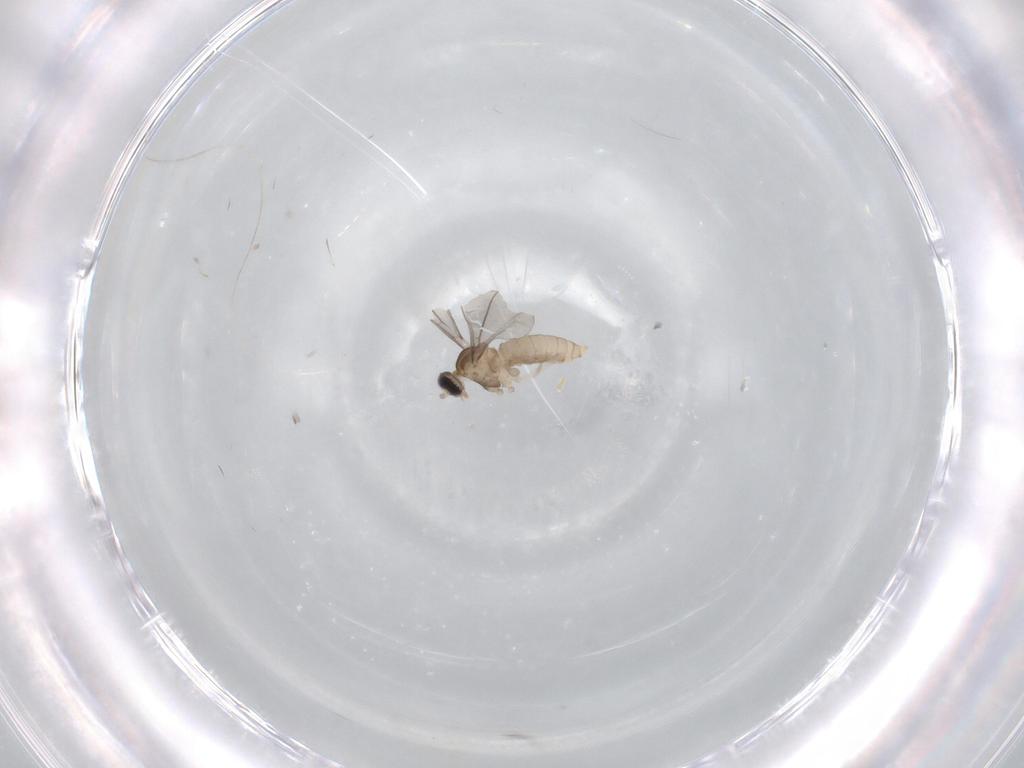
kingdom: Animalia
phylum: Arthropoda
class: Insecta
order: Diptera
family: Cecidomyiidae
